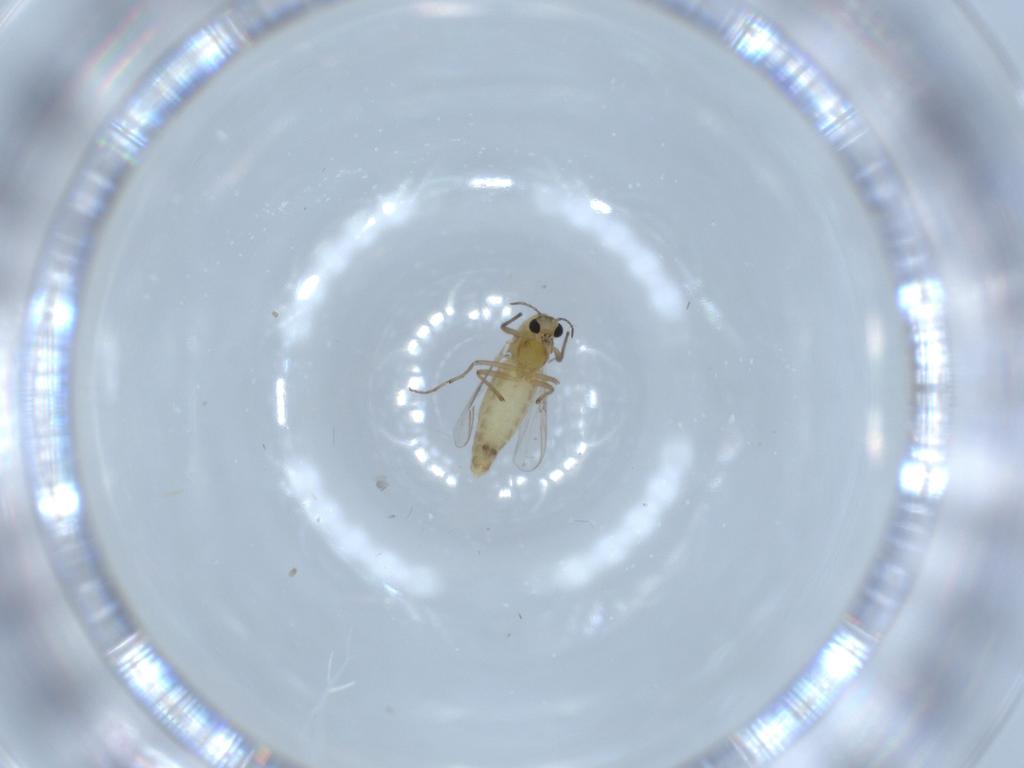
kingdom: Animalia
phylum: Arthropoda
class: Insecta
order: Diptera
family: Chironomidae
